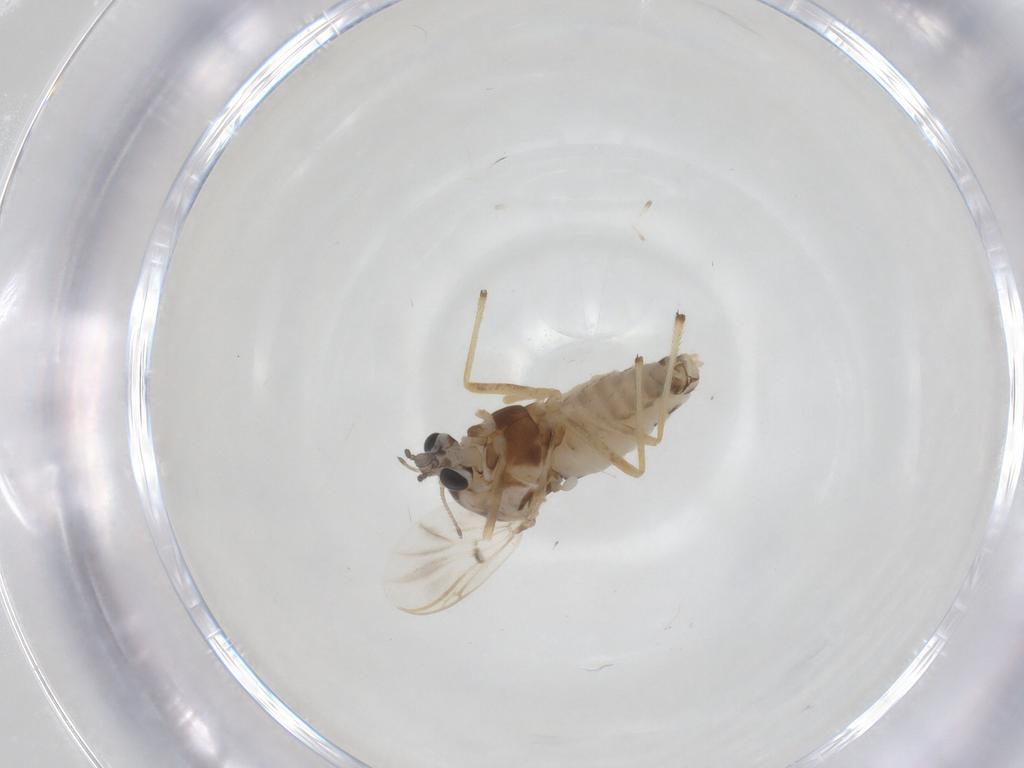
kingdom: Animalia
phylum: Arthropoda
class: Insecta
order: Diptera
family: Chironomidae
